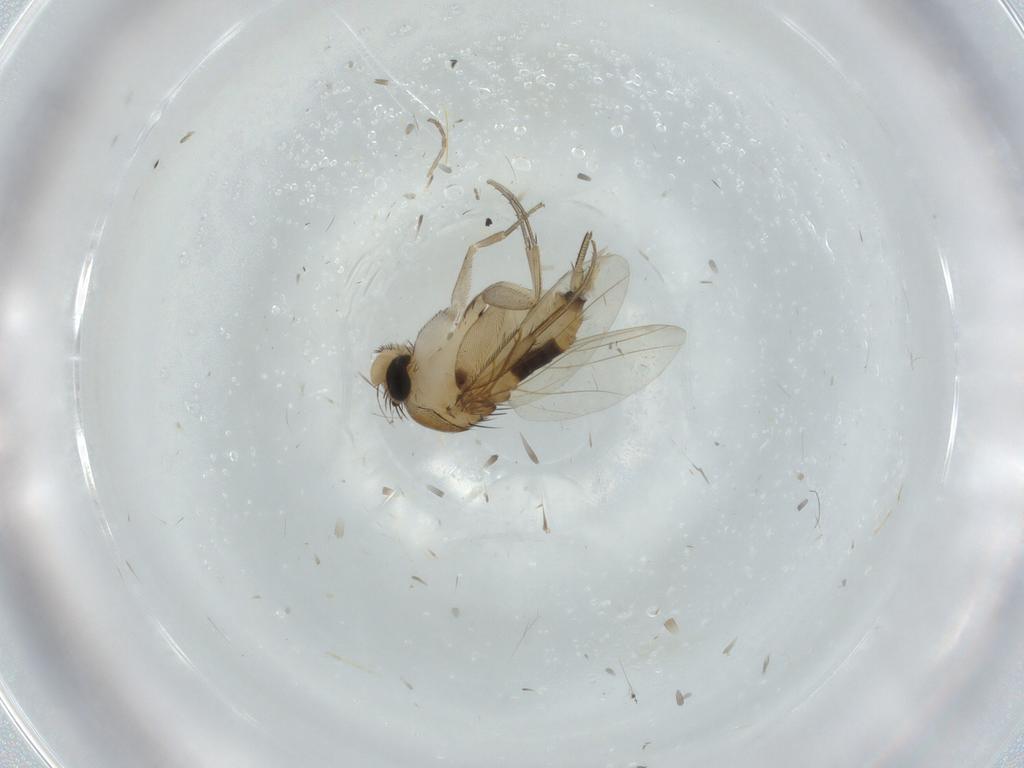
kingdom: Animalia
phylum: Arthropoda
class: Insecta
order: Diptera
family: Phoridae
